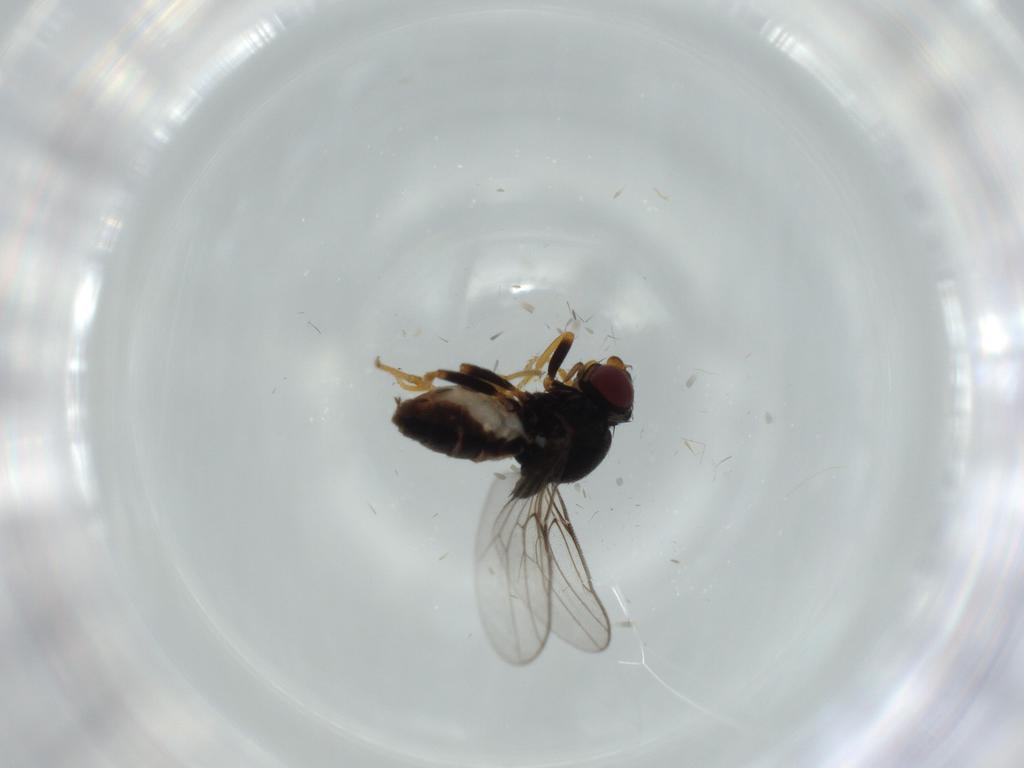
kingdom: Animalia
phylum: Arthropoda
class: Insecta
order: Diptera
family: Chloropidae
